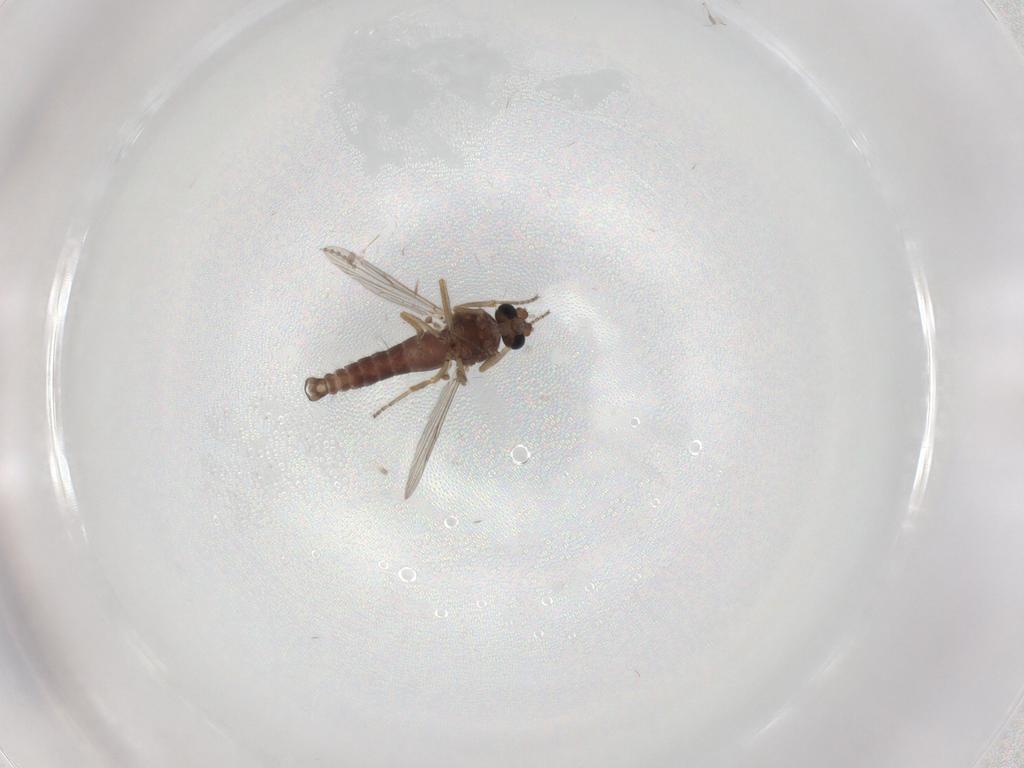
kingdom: Animalia
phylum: Arthropoda
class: Insecta
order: Diptera
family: Ceratopogonidae
